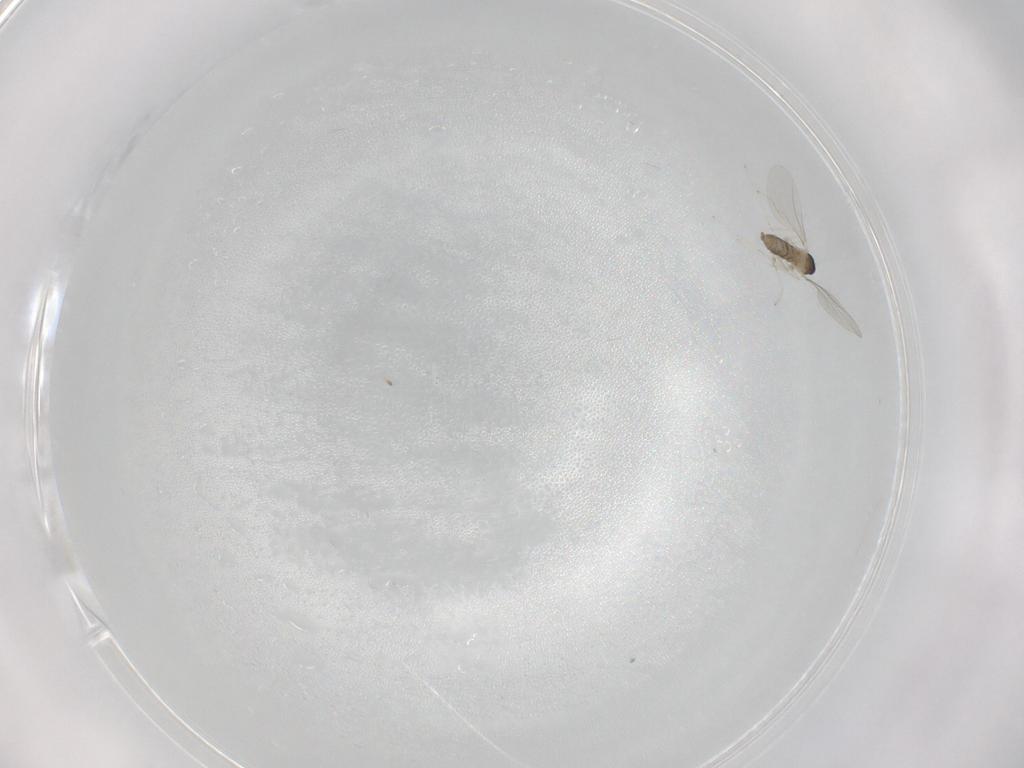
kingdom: Animalia
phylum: Arthropoda
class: Insecta
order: Diptera
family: Cecidomyiidae
